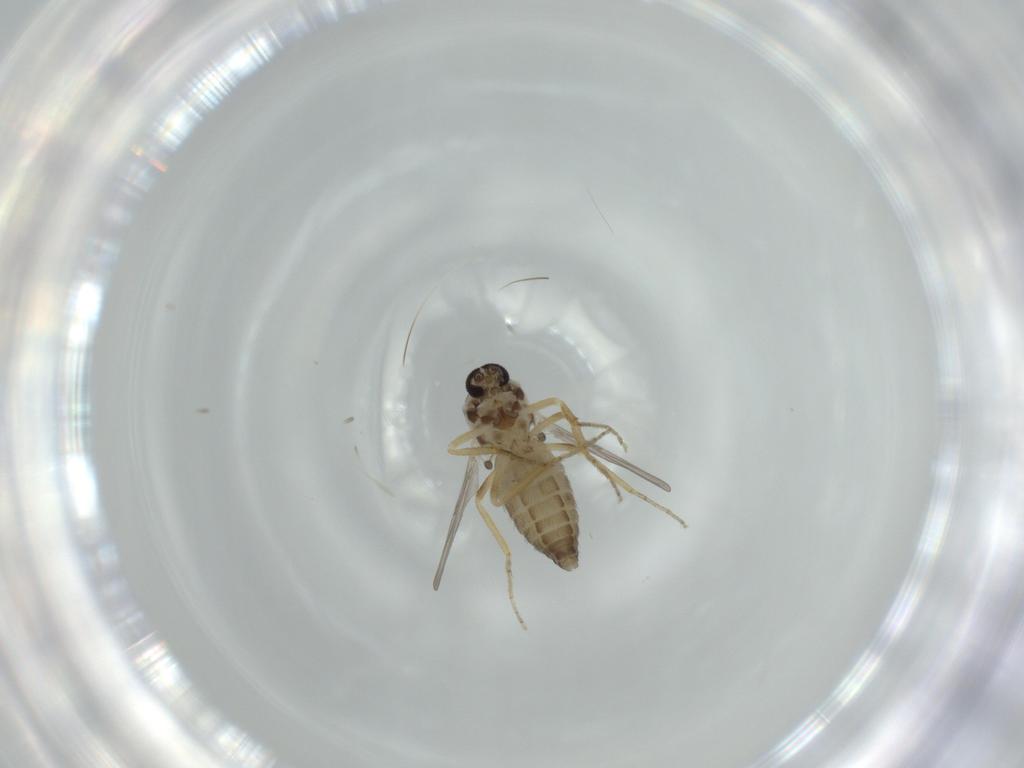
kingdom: Animalia
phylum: Arthropoda
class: Insecta
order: Diptera
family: Ceratopogonidae
